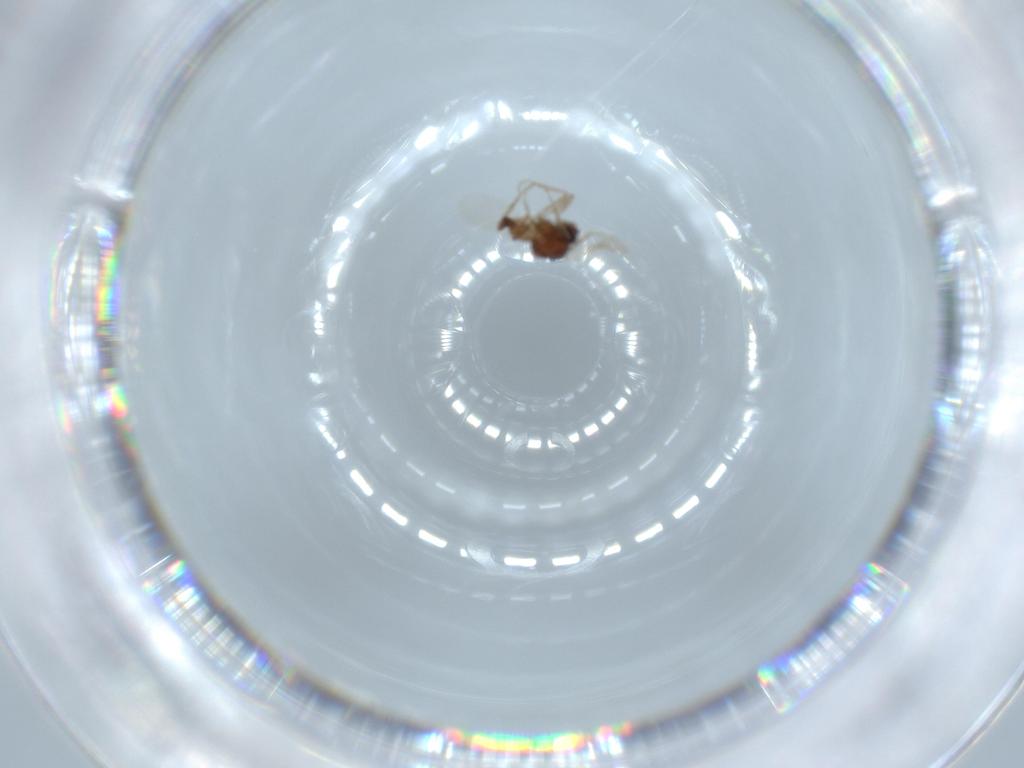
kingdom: Animalia
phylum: Arthropoda
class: Insecta
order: Diptera
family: Ceratopogonidae
